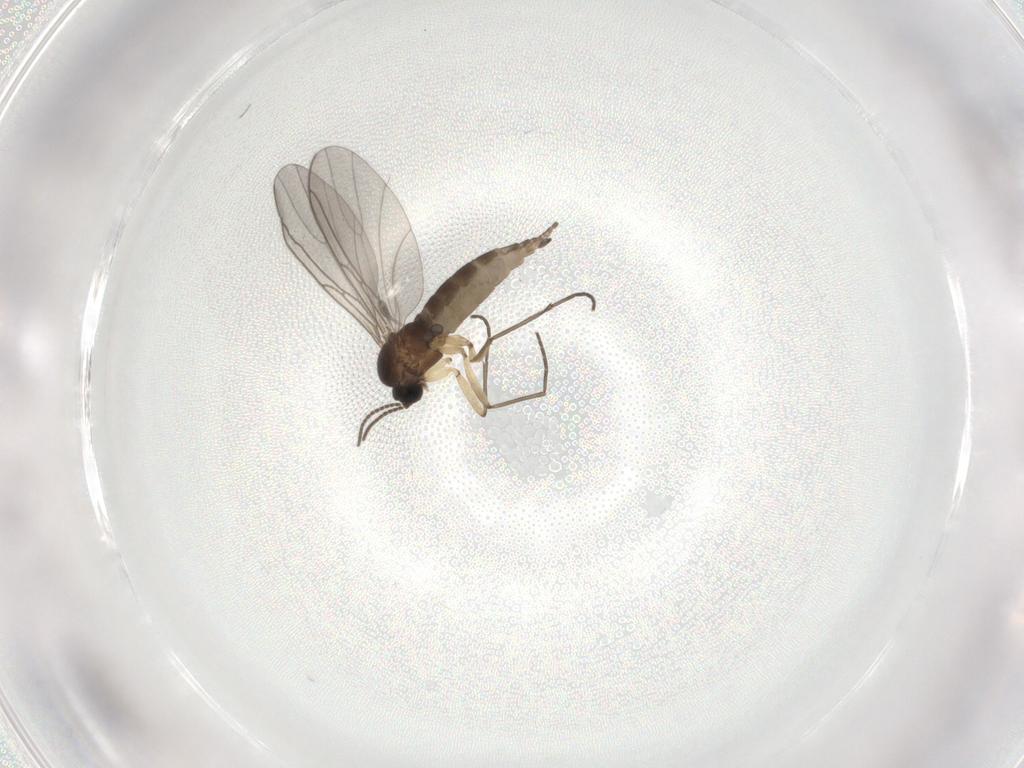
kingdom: Animalia
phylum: Arthropoda
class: Insecta
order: Diptera
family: Sciaridae
